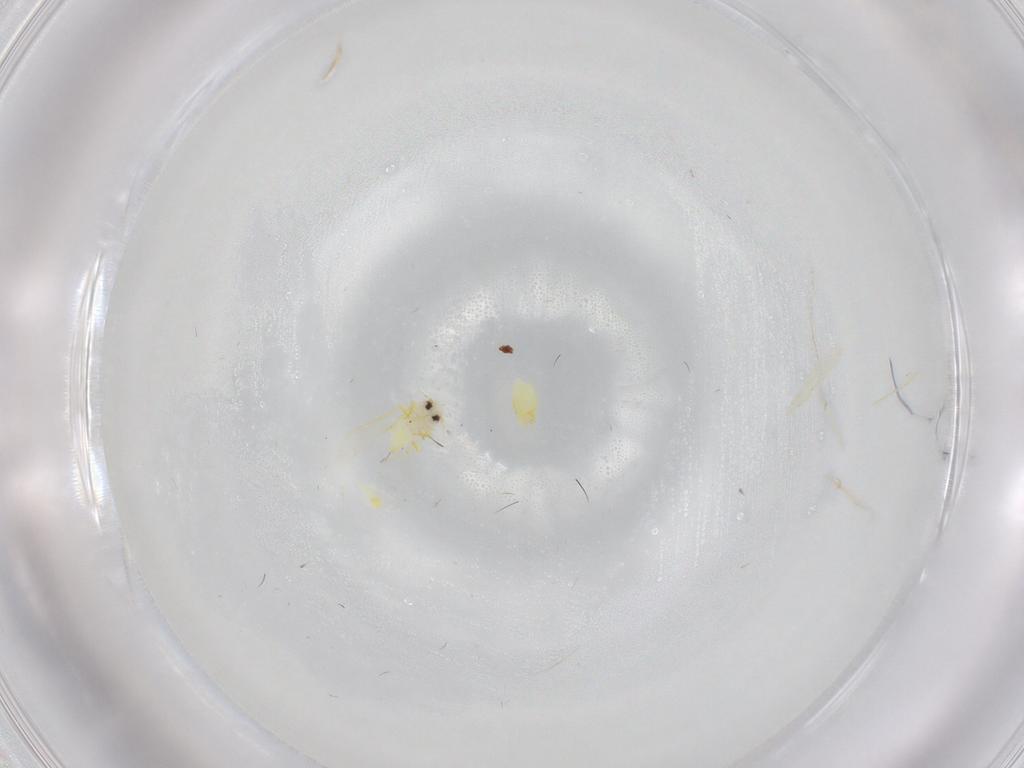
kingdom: Animalia
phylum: Arthropoda
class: Insecta
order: Hemiptera
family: Aleyrodidae
